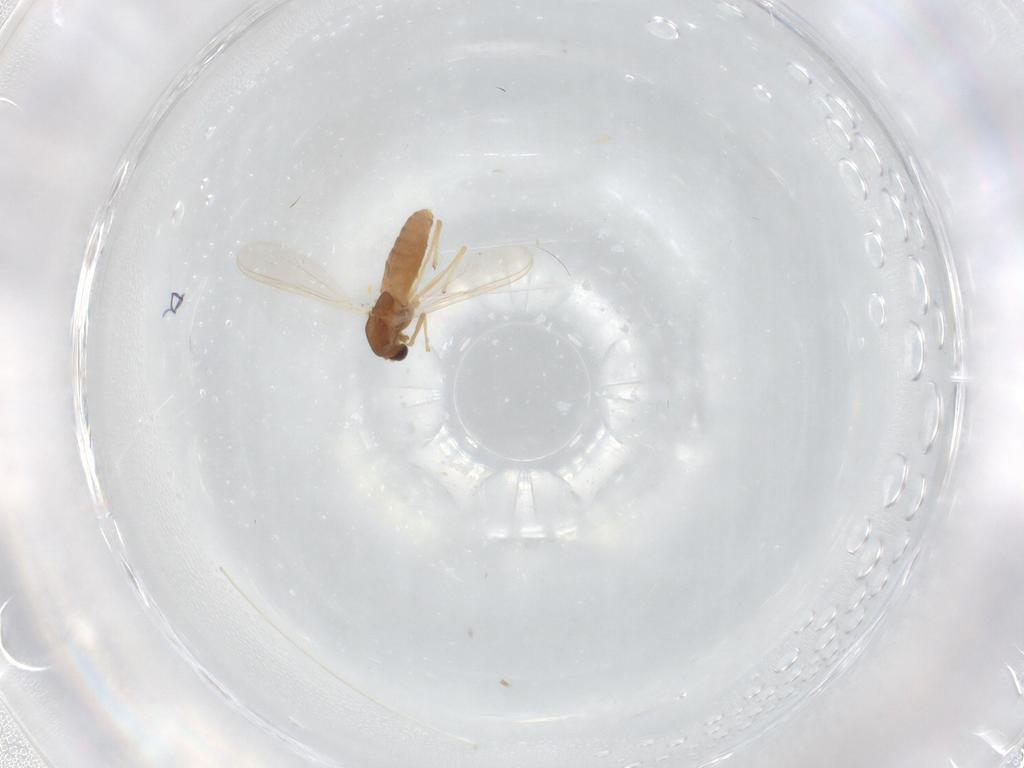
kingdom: Animalia
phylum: Arthropoda
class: Insecta
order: Diptera
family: Chironomidae
